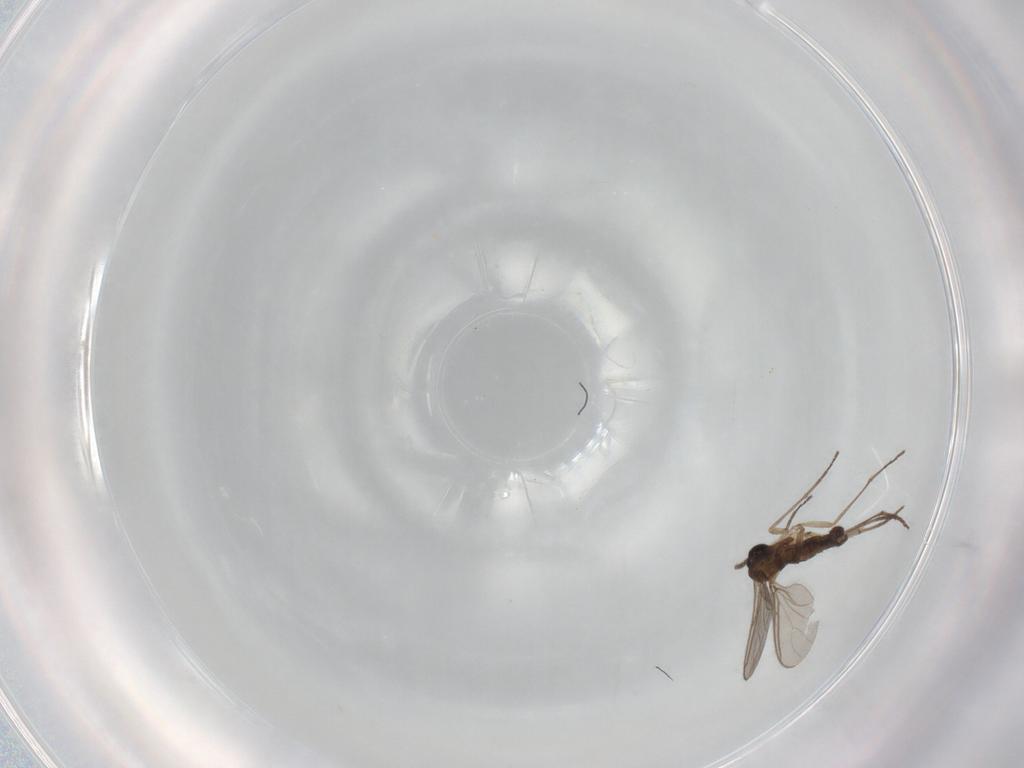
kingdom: Animalia
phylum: Arthropoda
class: Insecta
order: Diptera
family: Sciaridae
